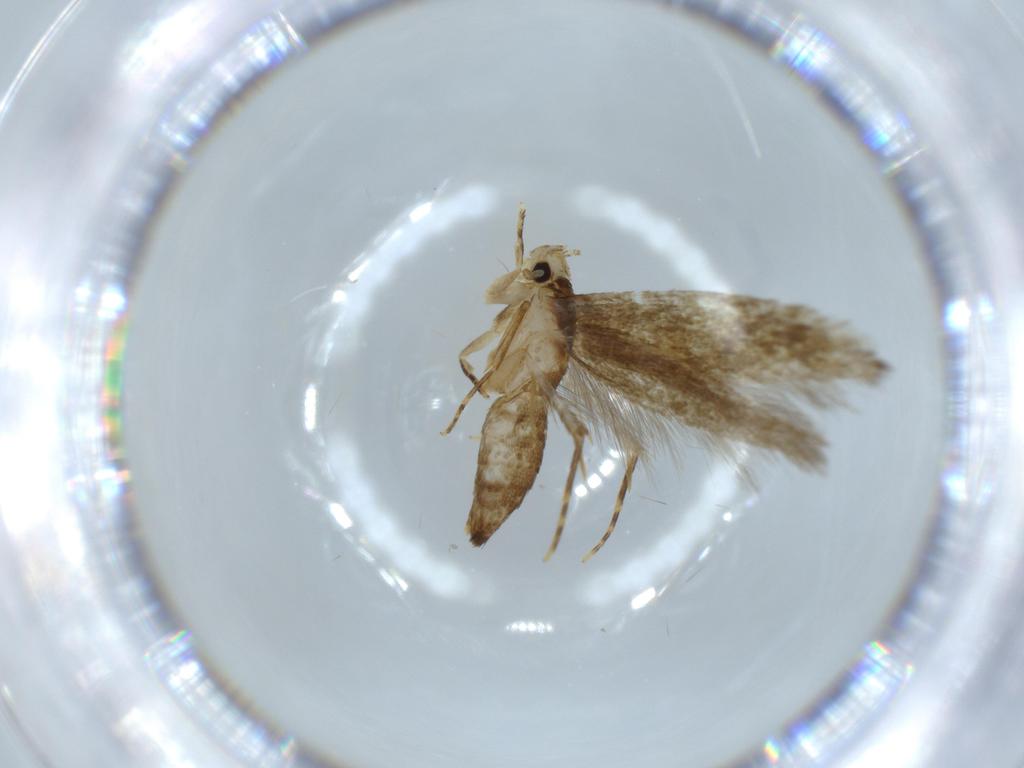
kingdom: Animalia
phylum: Arthropoda
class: Insecta
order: Lepidoptera
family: Tineidae
